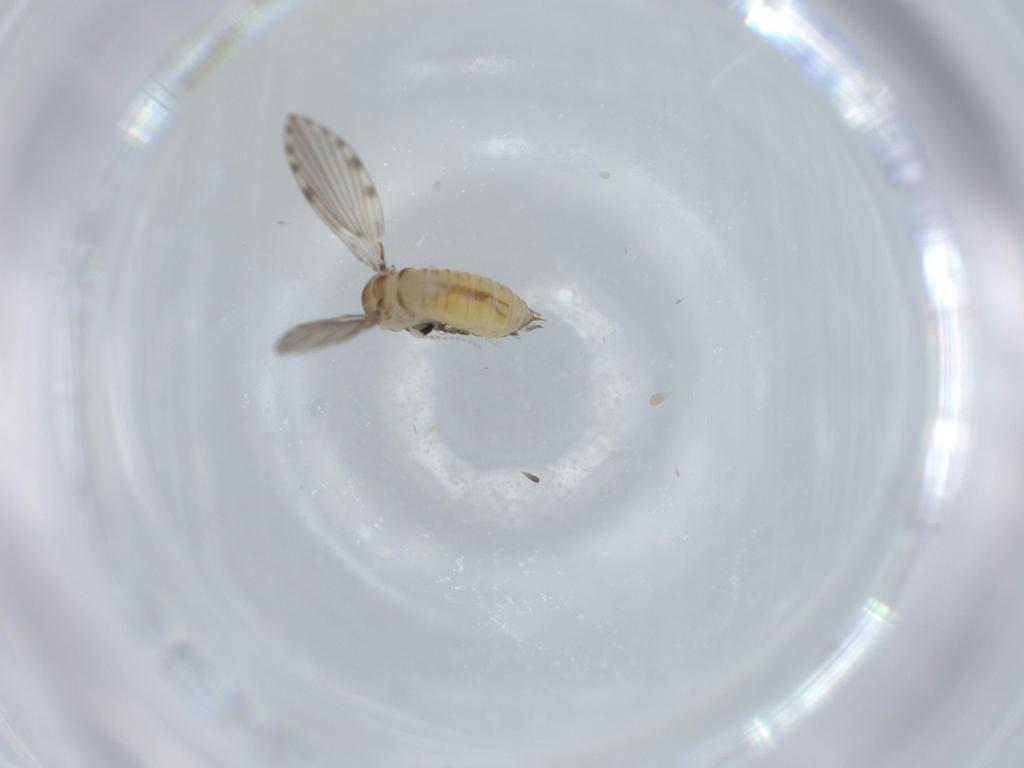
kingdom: Animalia
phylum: Arthropoda
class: Insecta
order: Diptera
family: Psychodidae
